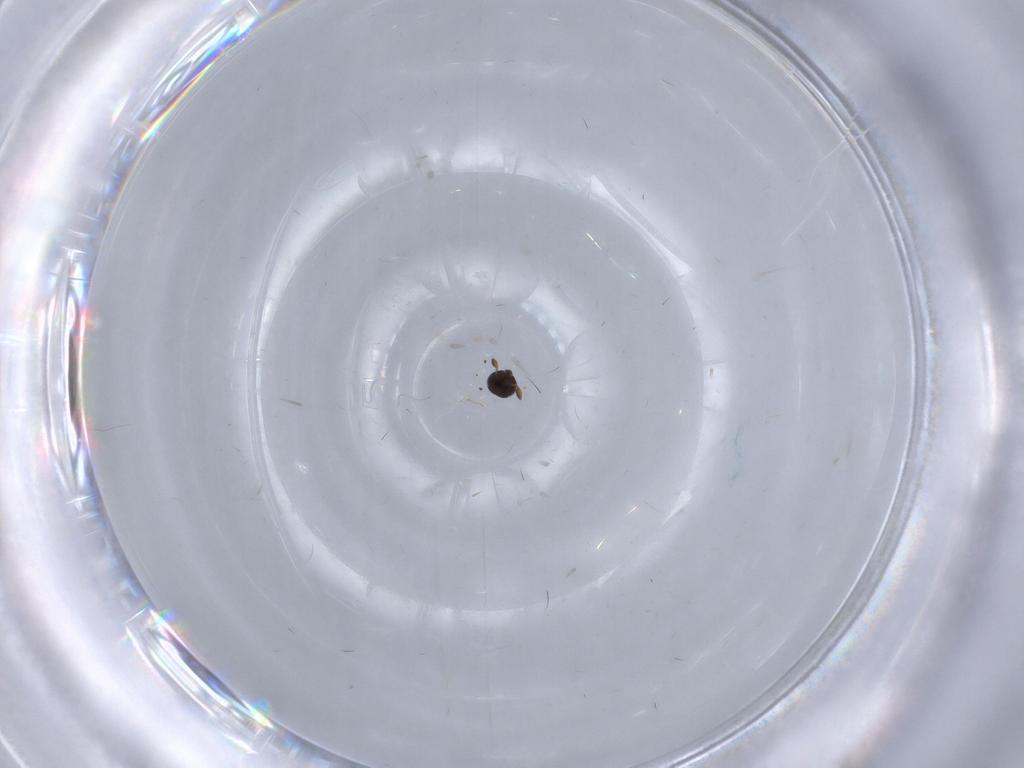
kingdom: Animalia
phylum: Arthropoda
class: Insecta
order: Hymenoptera
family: Scelionidae
